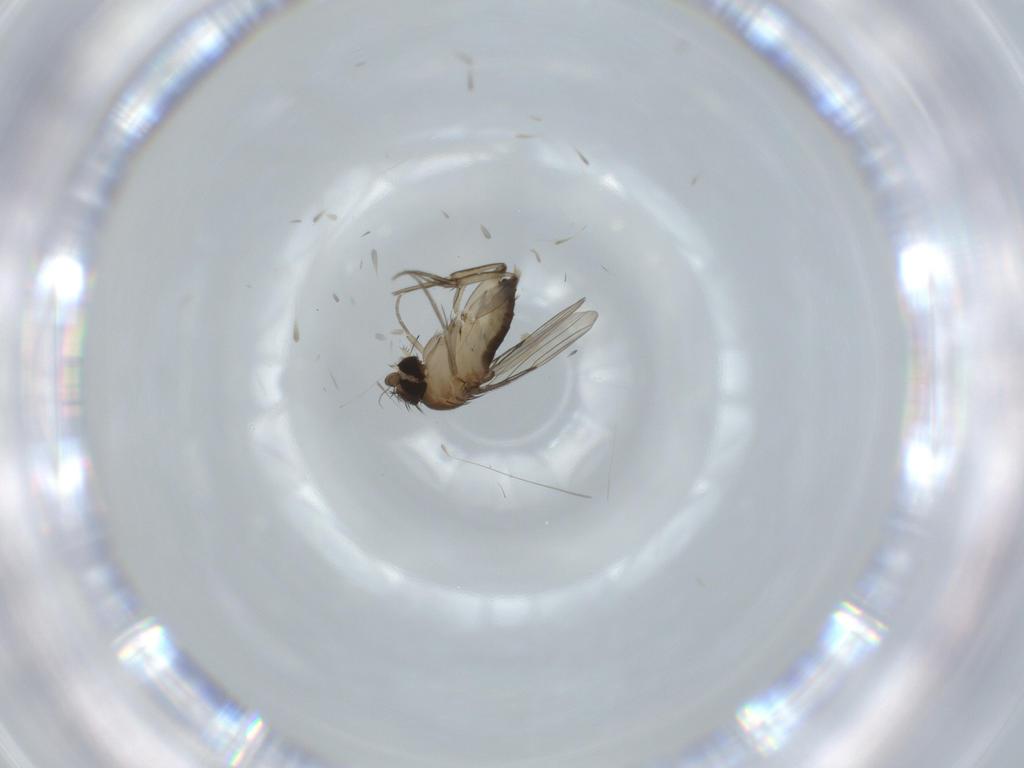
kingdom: Animalia
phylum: Arthropoda
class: Insecta
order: Diptera
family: Phoridae
